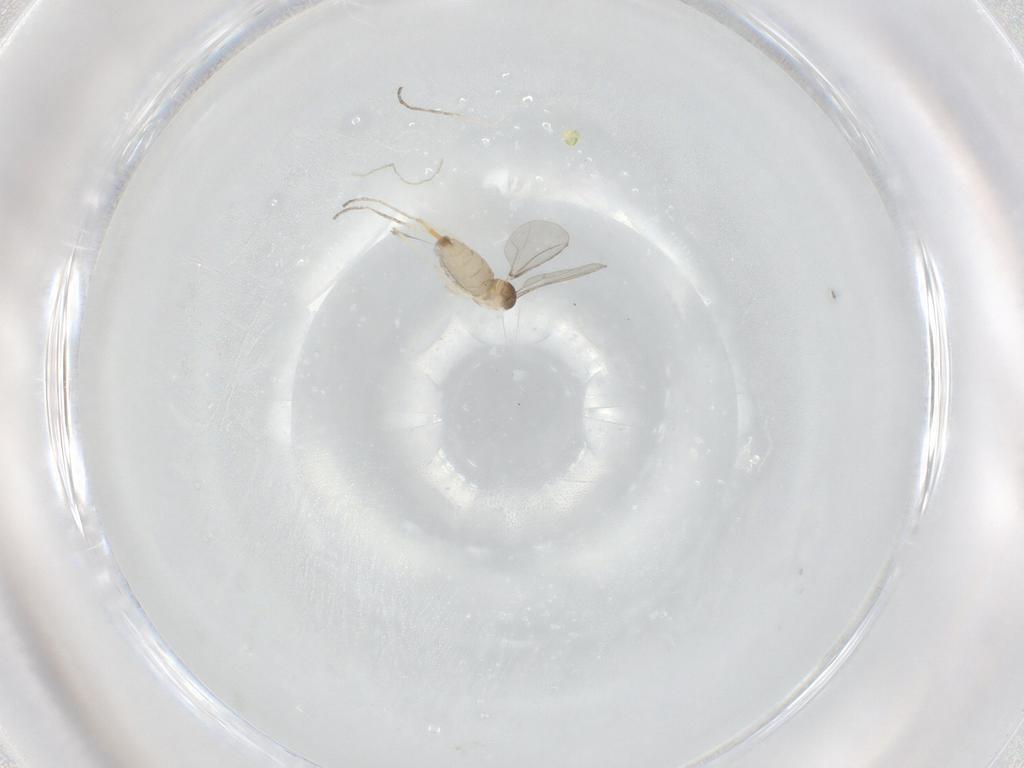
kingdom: Animalia
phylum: Arthropoda
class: Insecta
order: Diptera
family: Cecidomyiidae
